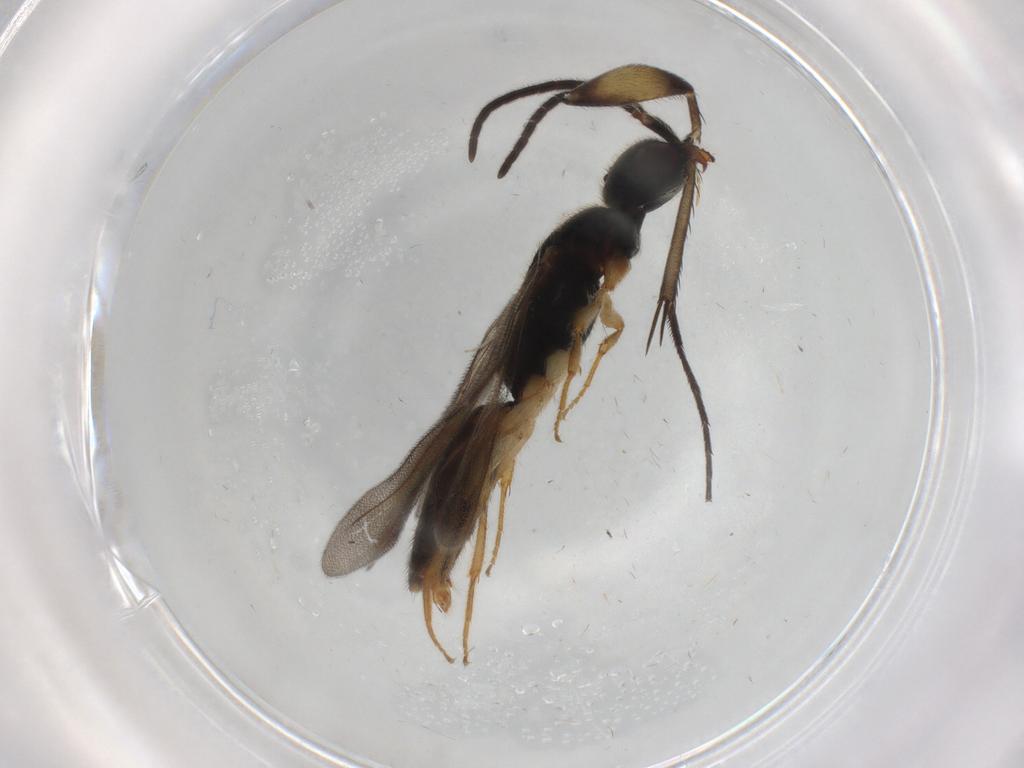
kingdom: Animalia
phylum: Arthropoda
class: Insecta
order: Hymenoptera
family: Bethylidae
